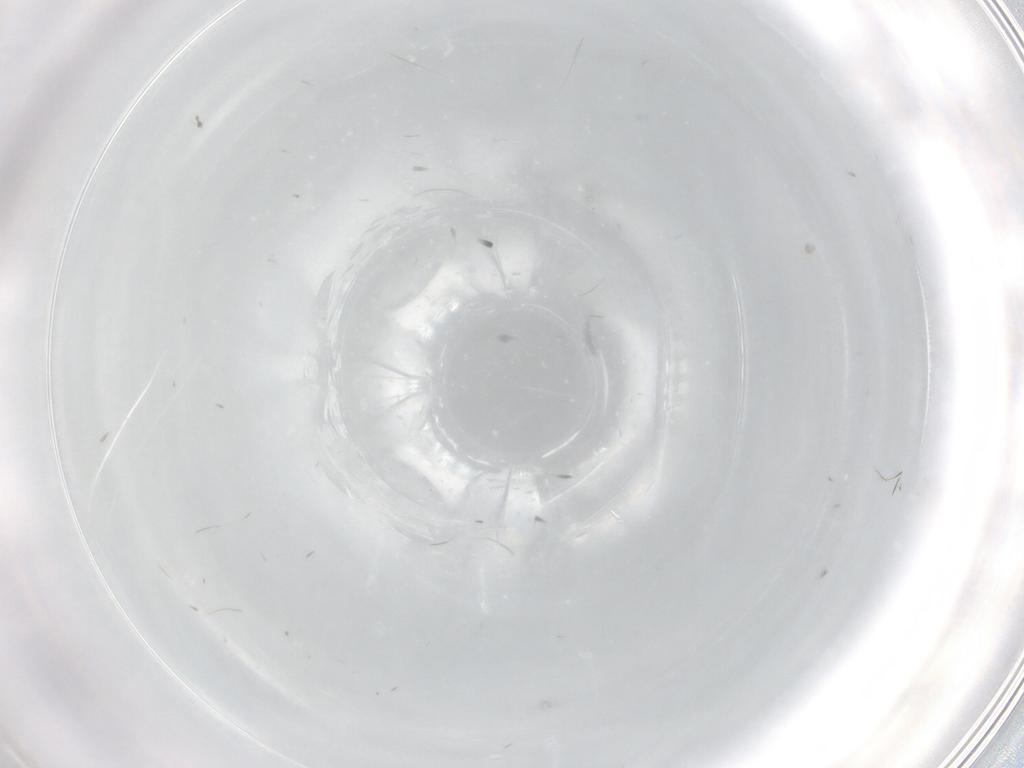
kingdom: Animalia
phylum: Arthropoda
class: Insecta
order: Diptera
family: Cecidomyiidae
